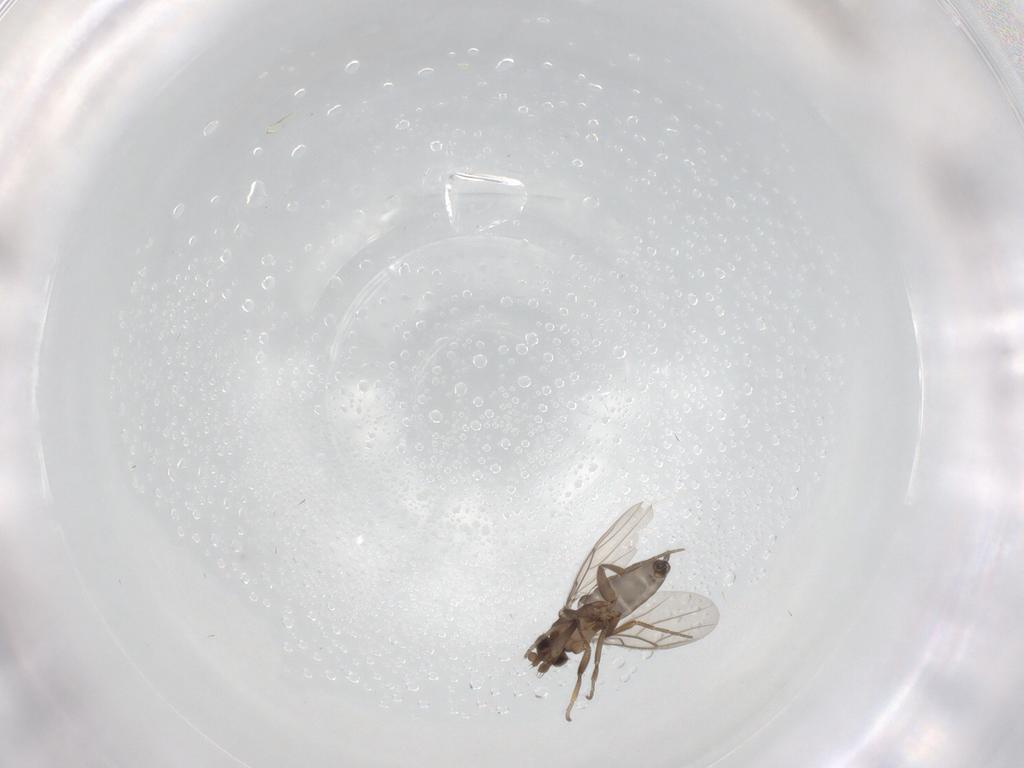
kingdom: Animalia
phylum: Arthropoda
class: Insecta
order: Diptera
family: Phoridae
